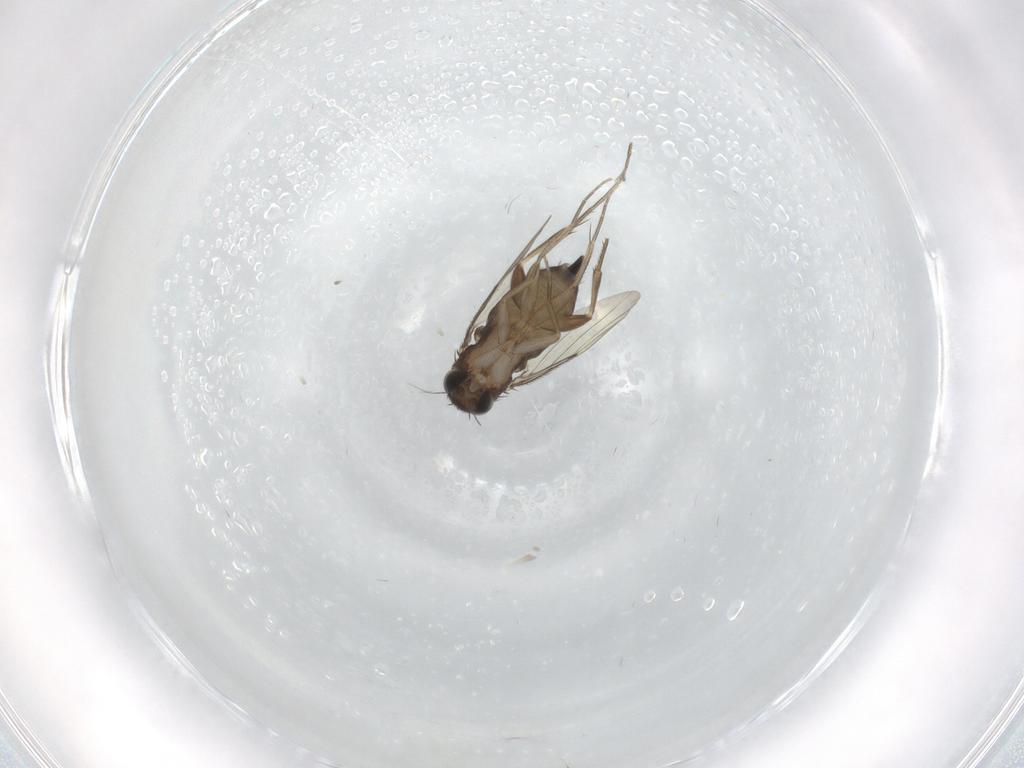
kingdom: Animalia
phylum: Arthropoda
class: Insecta
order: Diptera
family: Phoridae
